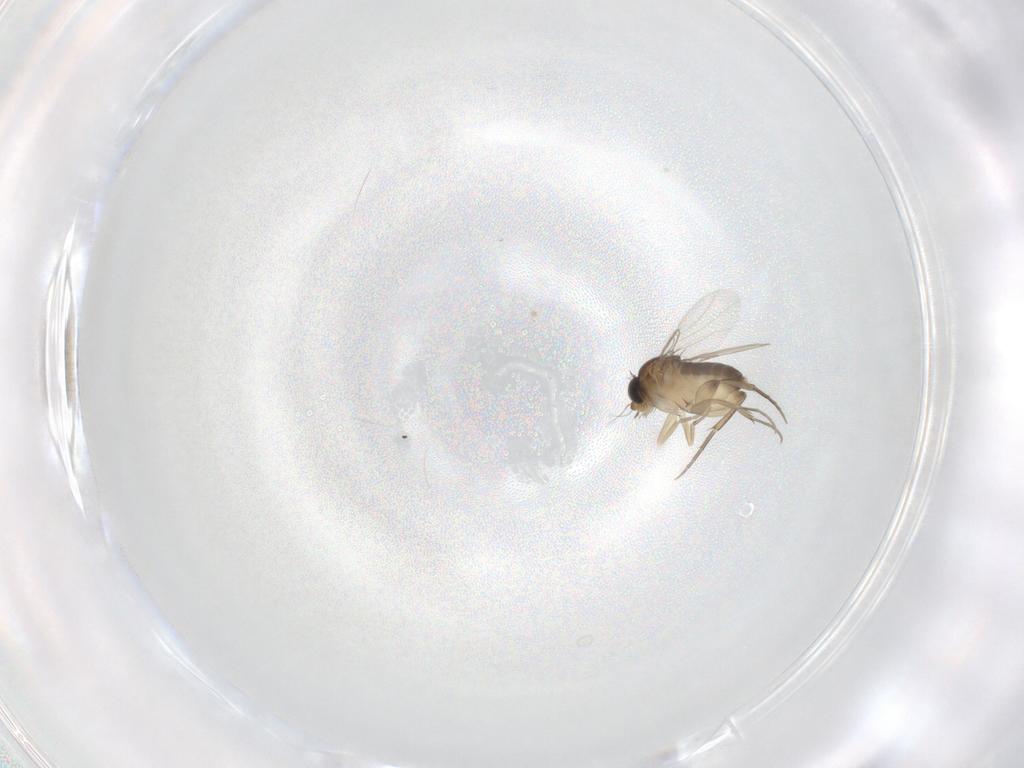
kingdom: Animalia
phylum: Arthropoda
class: Insecta
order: Diptera
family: Phoridae
